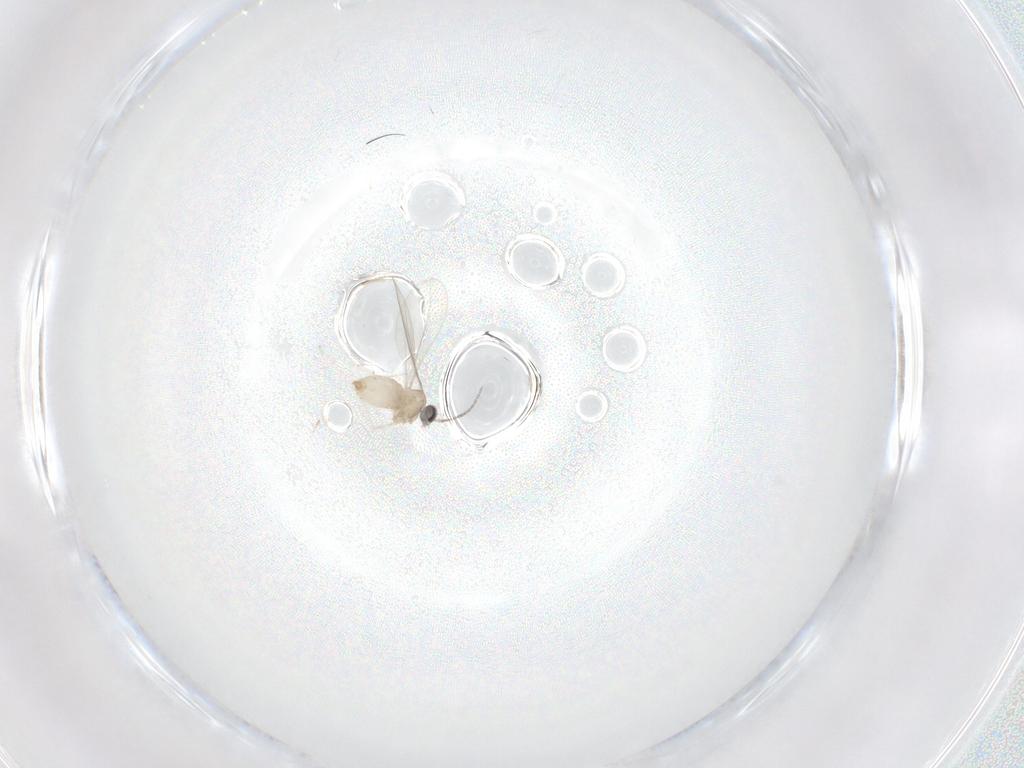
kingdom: Animalia
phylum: Arthropoda
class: Insecta
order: Diptera
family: Cecidomyiidae
